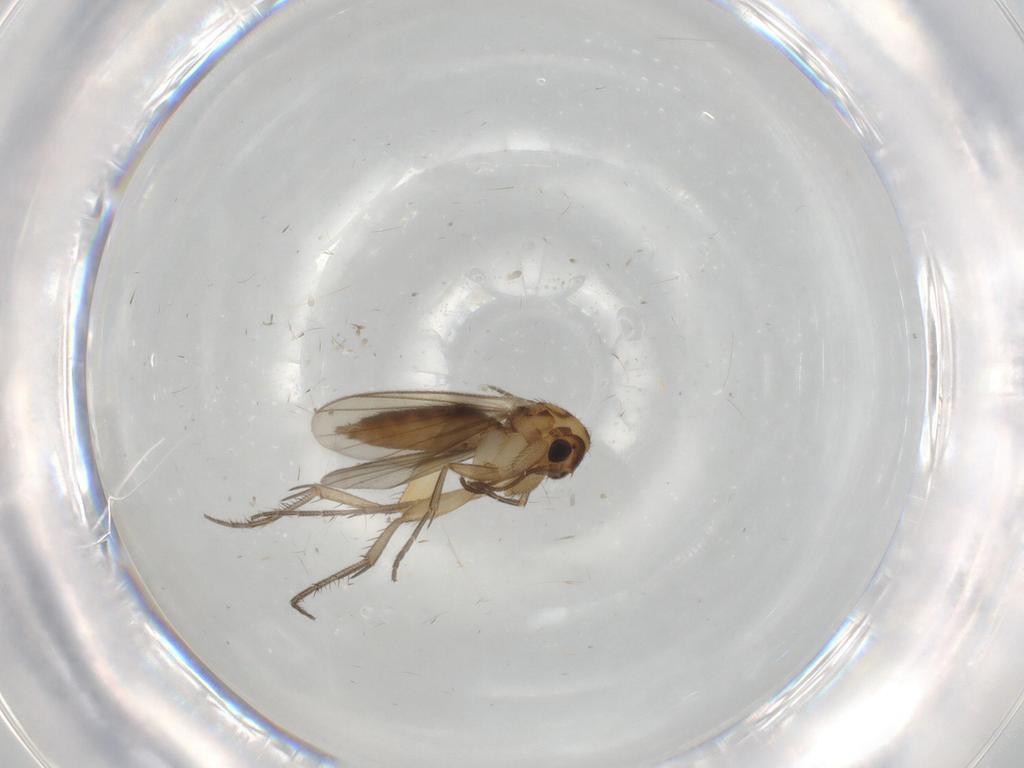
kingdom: Animalia
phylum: Arthropoda
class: Insecta
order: Diptera
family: Mycetophilidae
